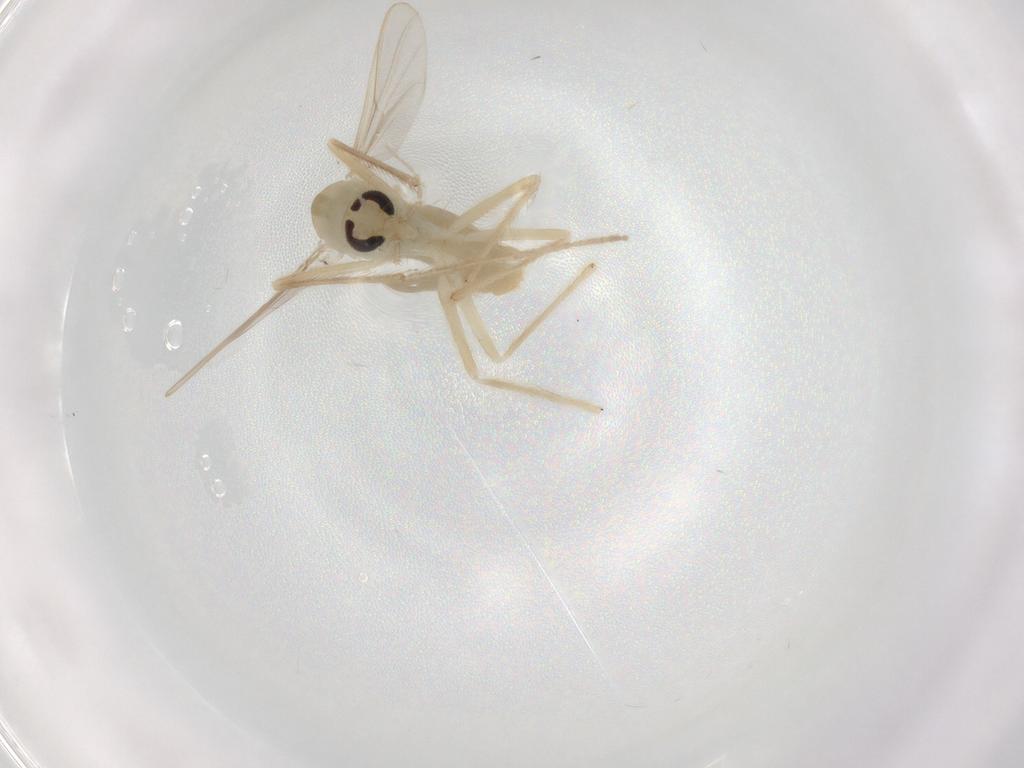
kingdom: Animalia
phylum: Arthropoda
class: Insecta
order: Diptera
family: Chironomidae
